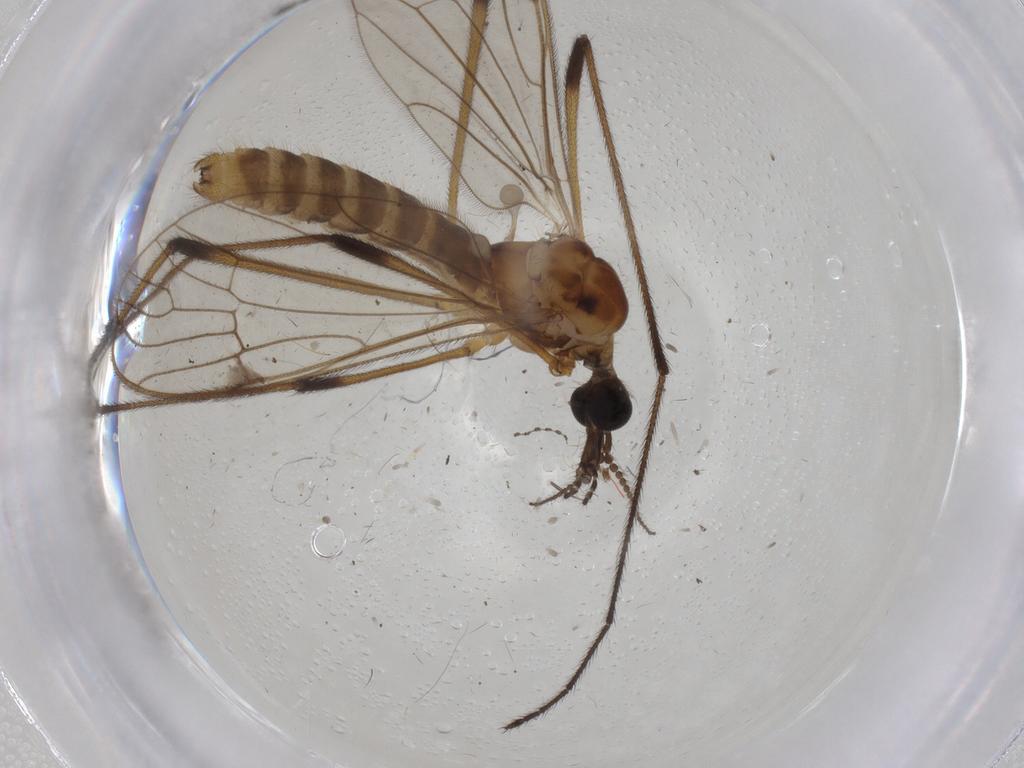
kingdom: Animalia
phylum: Arthropoda
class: Insecta
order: Diptera
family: Limoniidae
